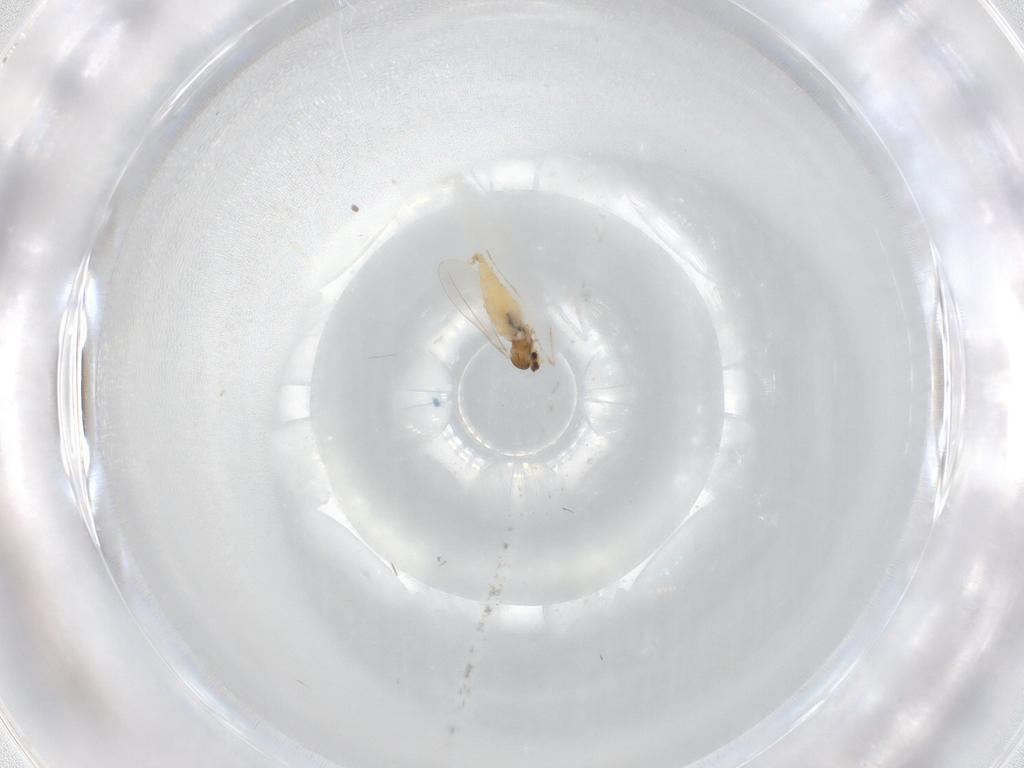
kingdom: Animalia
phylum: Arthropoda
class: Insecta
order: Diptera
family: Cecidomyiidae
